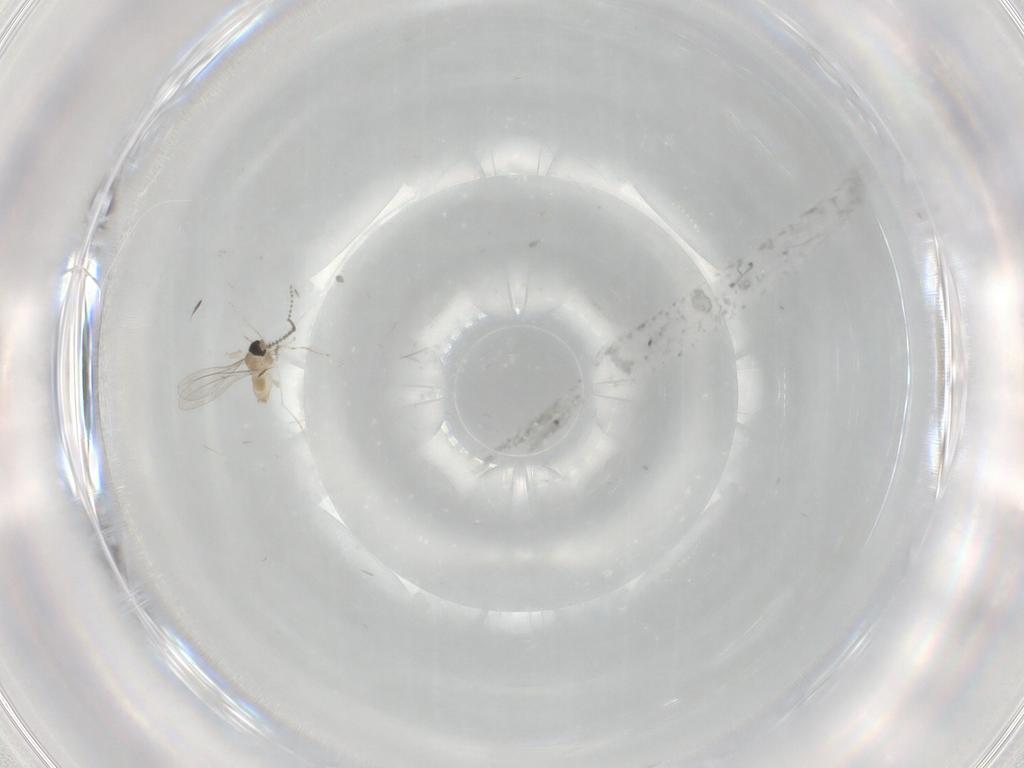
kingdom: Animalia
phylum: Arthropoda
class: Insecta
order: Diptera
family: Cecidomyiidae
